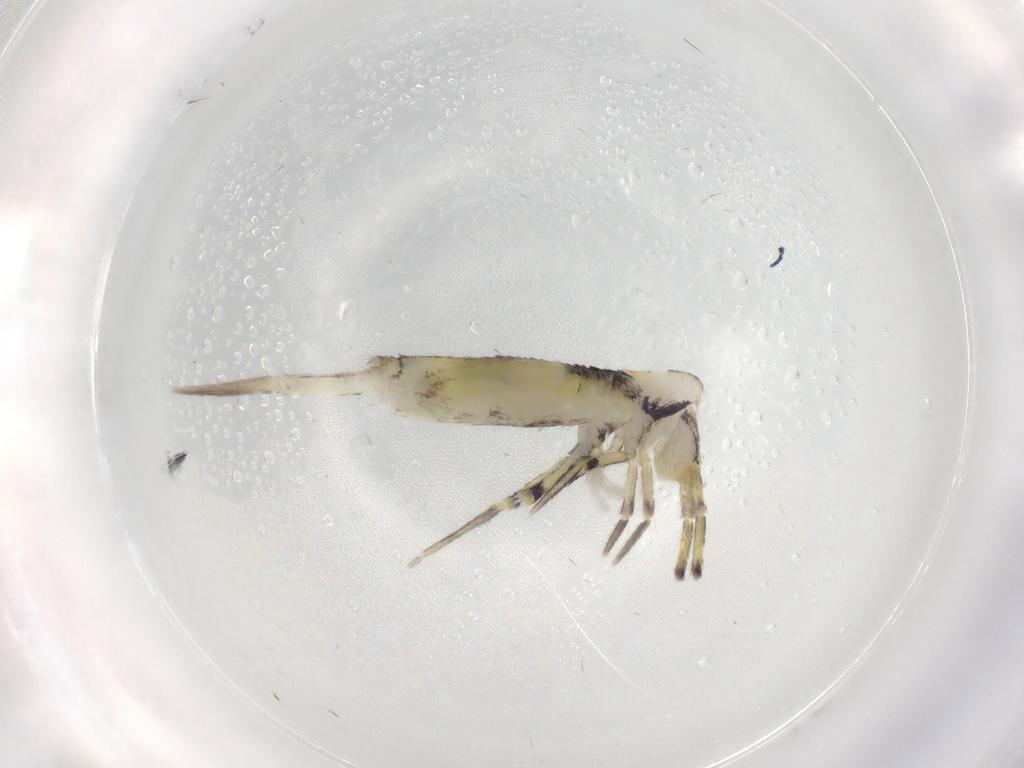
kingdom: Animalia
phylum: Arthropoda
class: Collembola
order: Entomobryomorpha
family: Entomobryidae
